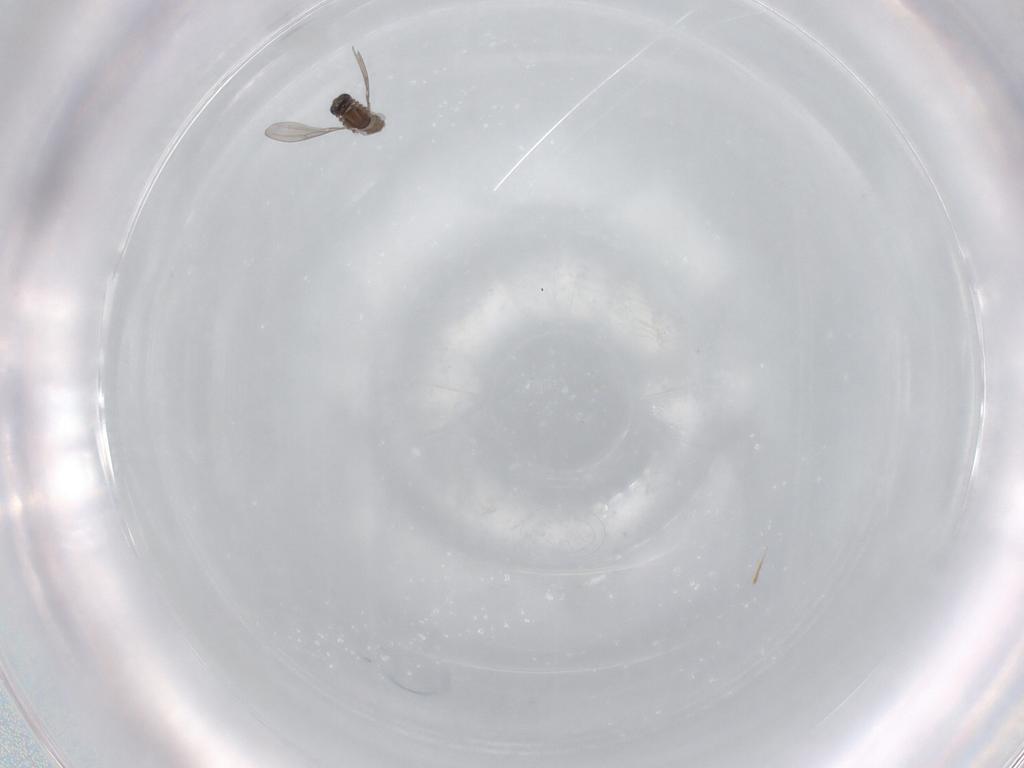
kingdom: Animalia
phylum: Arthropoda
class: Insecta
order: Diptera
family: Cecidomyiidae
